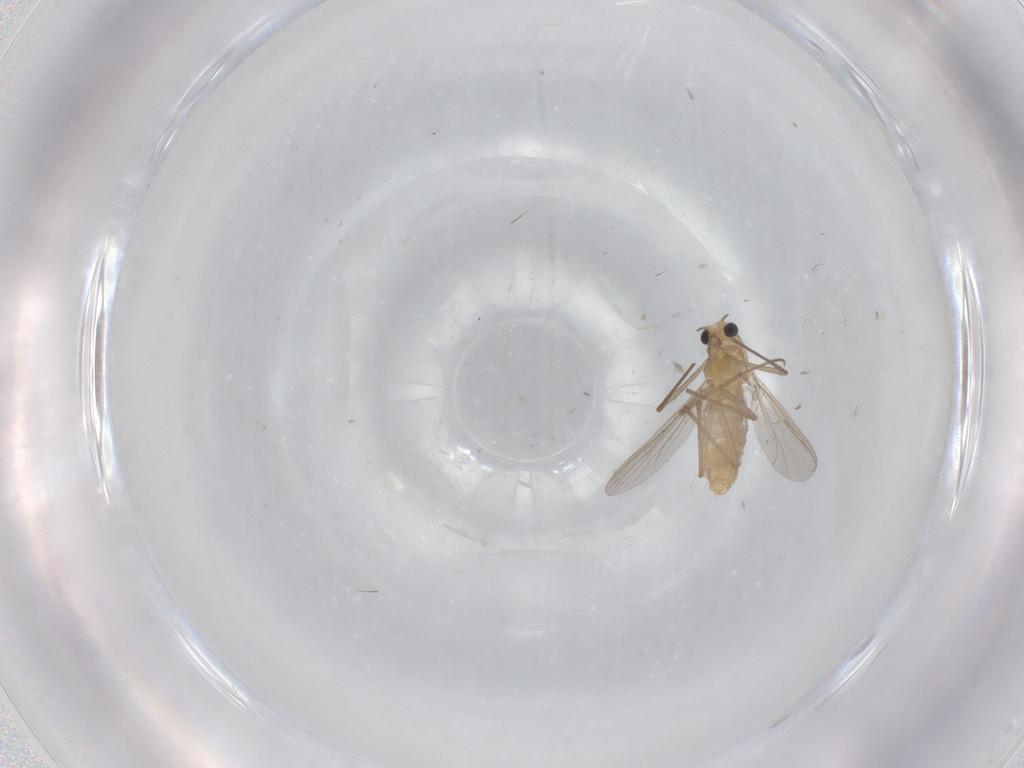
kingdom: Animalia
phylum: Arthropoda
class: Insecta
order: Diptera
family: Chironomidae
